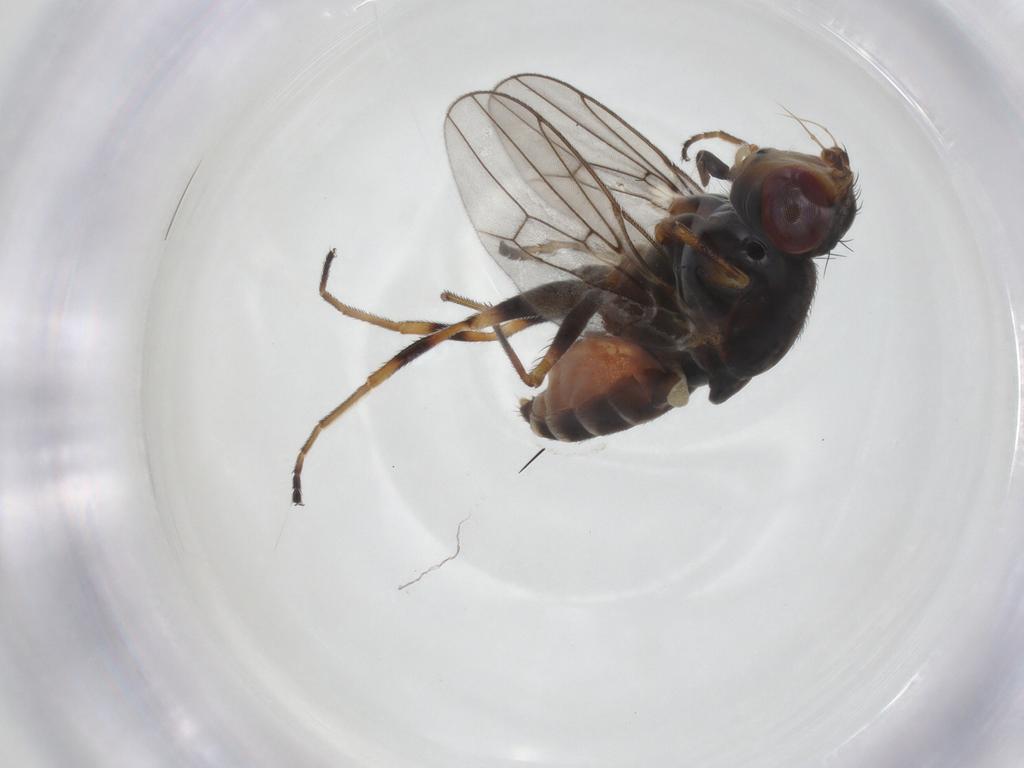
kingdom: Animalia
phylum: Arthropoda
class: Insecta
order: Diptera
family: Chloropidae
